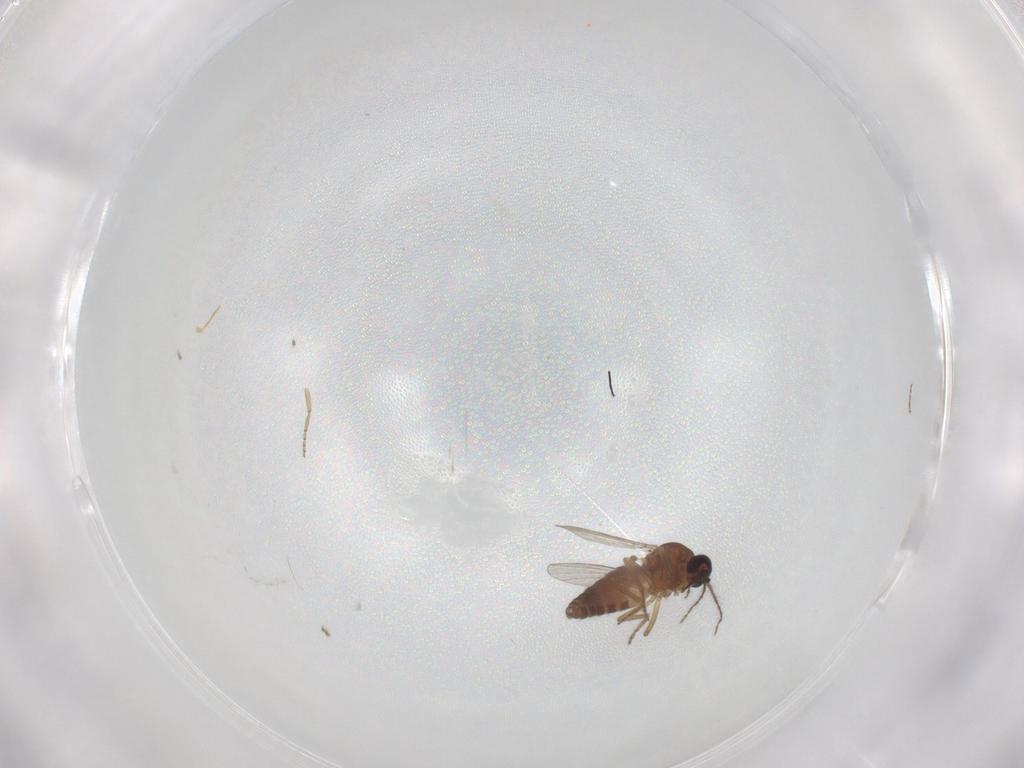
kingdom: Animalia
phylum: Arthropoda
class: Insecta
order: Diptera
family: Ceratopogonidae
